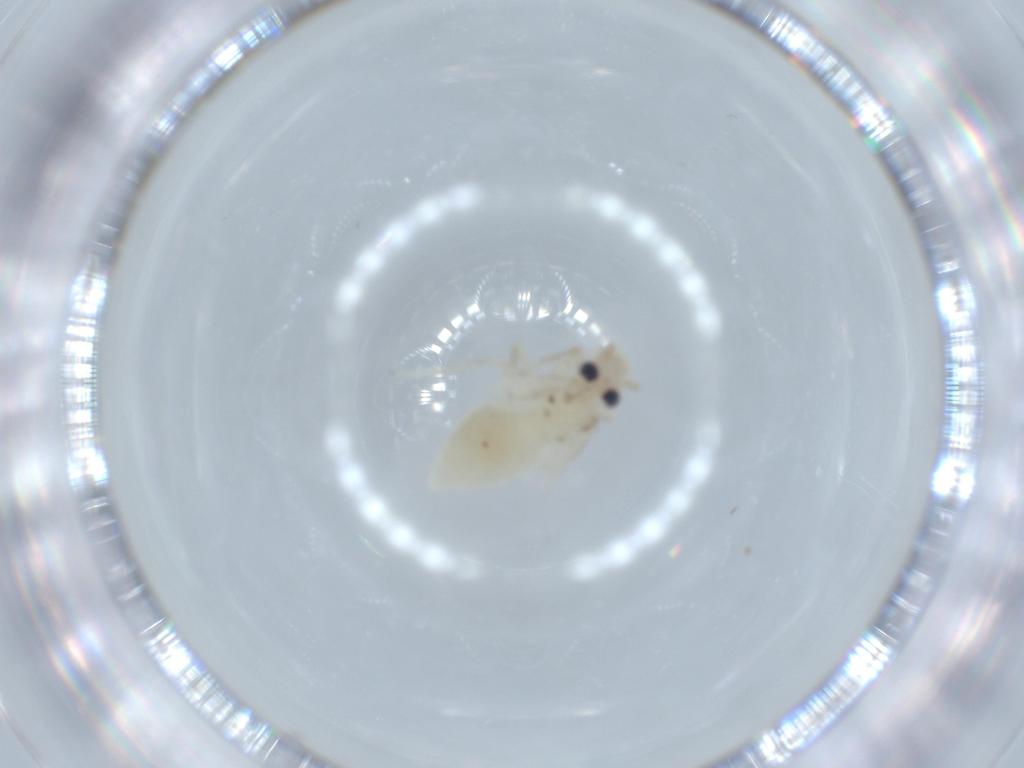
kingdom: Animalia
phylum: Arthropoda
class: Insecta
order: Psocodea
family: Caeciliusidae
